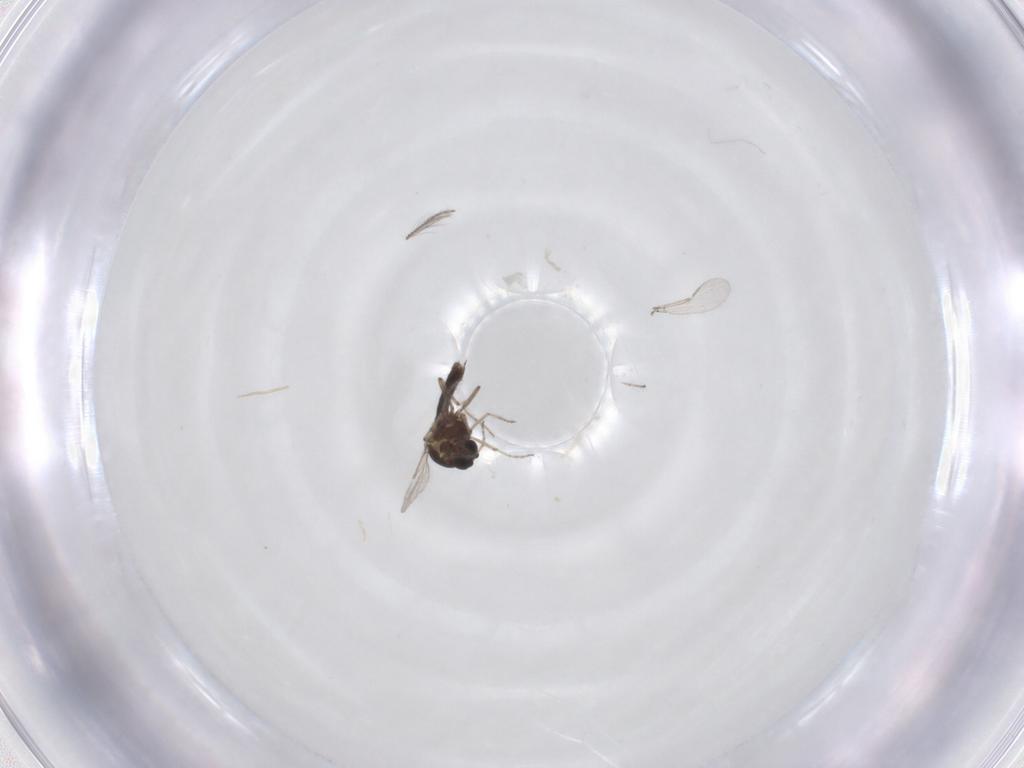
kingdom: Animalia
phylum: Arthropoda
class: Insecta
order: Diptera
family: Ceratopogonidae
